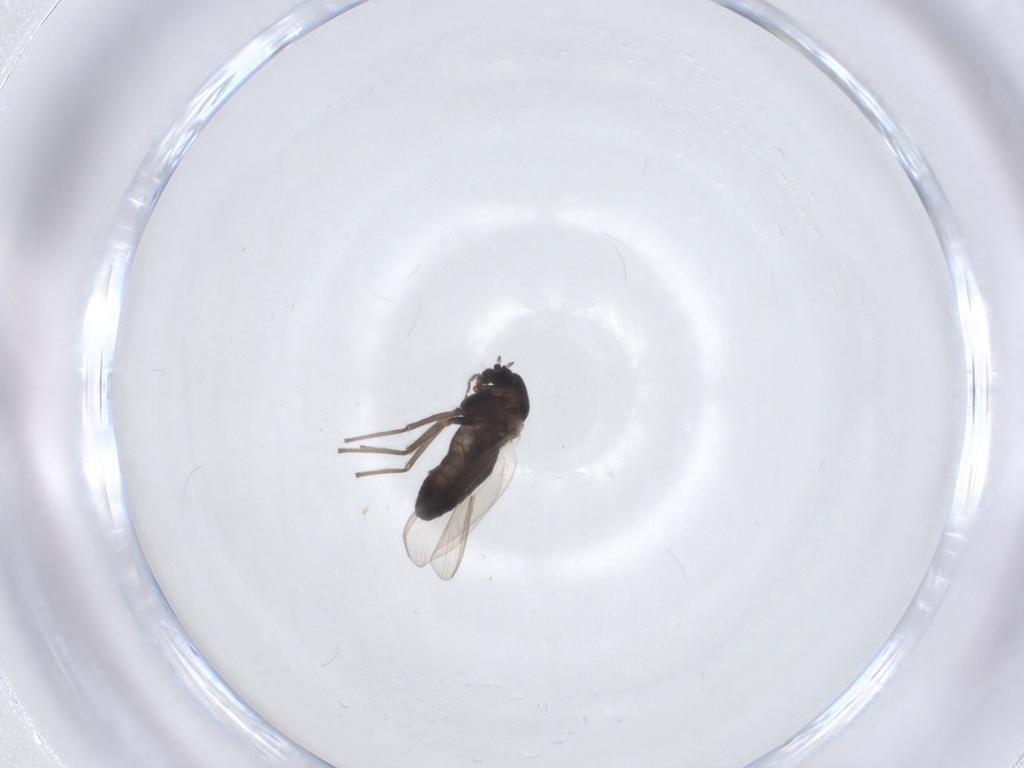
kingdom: Animalia
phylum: Arthropoda
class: Insecta
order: Diptera
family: Chironomidae
